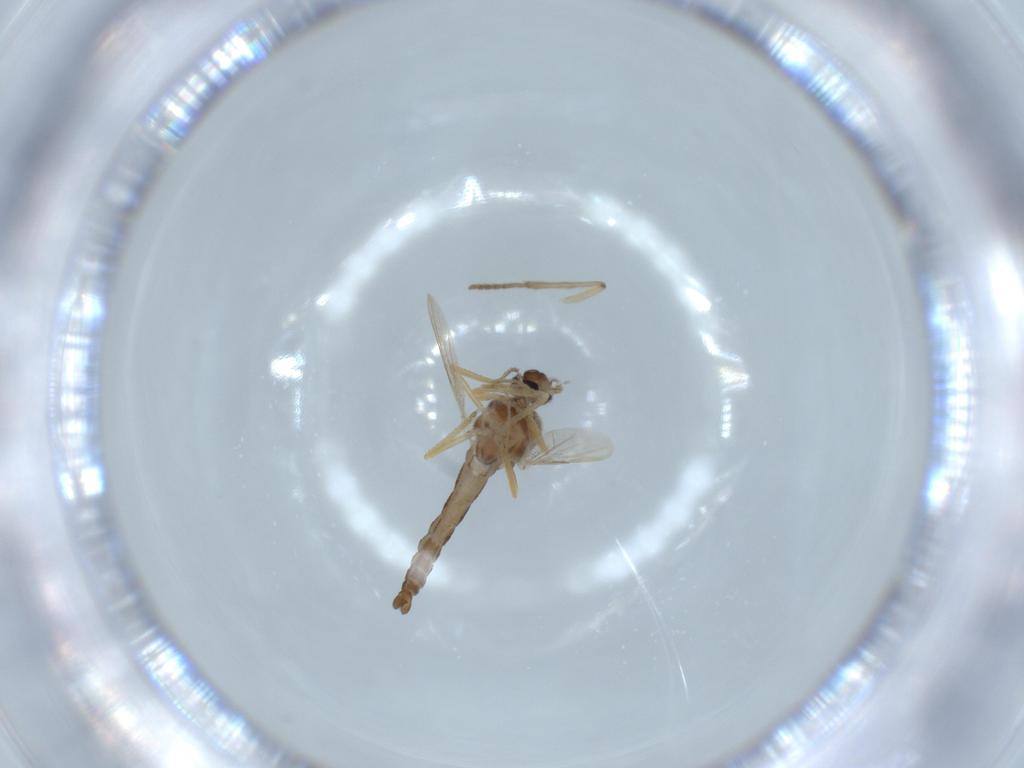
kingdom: Animalia
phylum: Arthropoda
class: Insecta
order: Diptera
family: Ceratopogonidae
